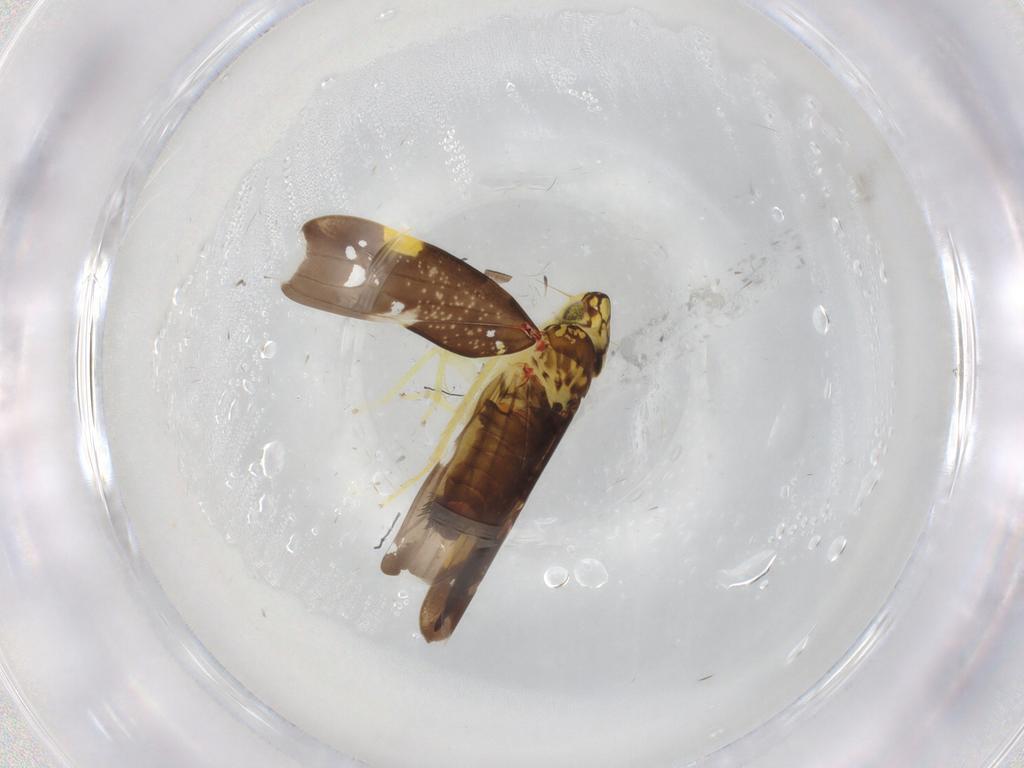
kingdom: Animalia
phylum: Arthropoda
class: Insecta
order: Hemiptera
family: Cicadellidae
